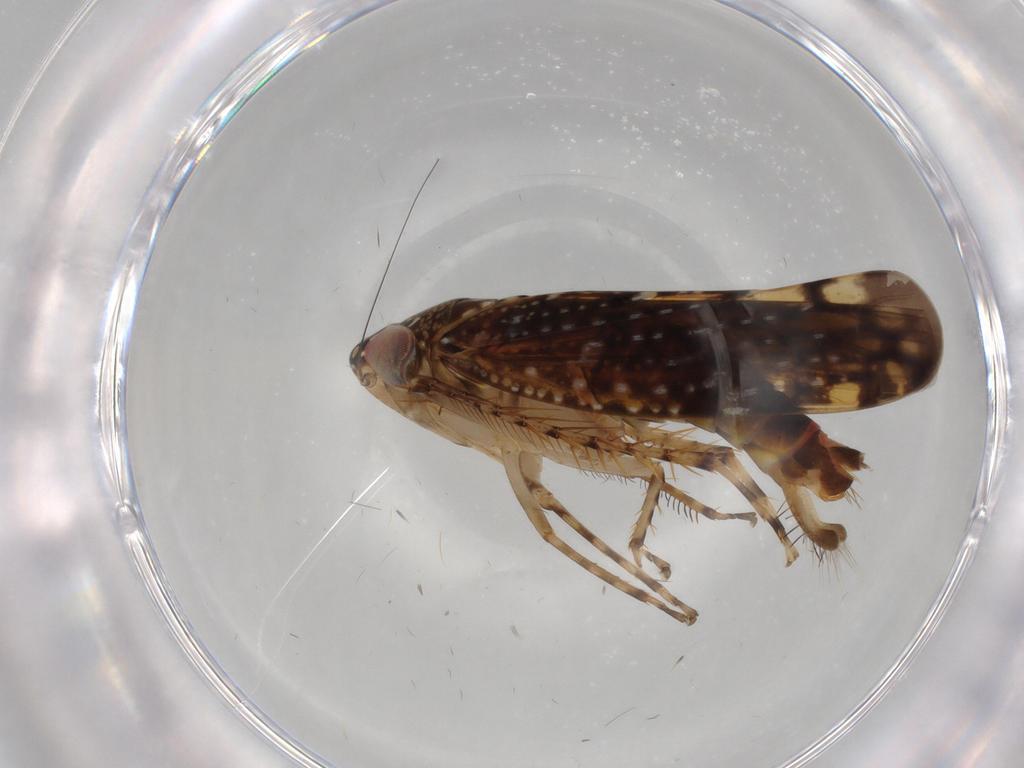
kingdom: Animalia
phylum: Arthropoda
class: Insecta
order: Hemiptera
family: Cicadellidae
